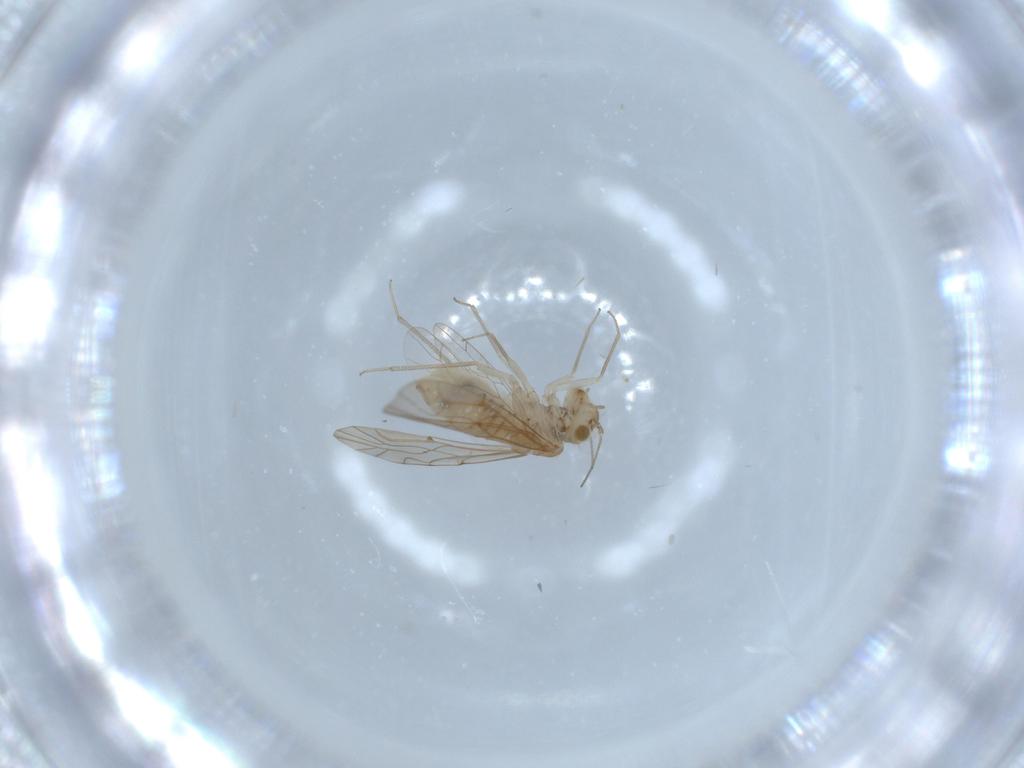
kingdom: Animalia
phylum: Arthropoda
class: Insecta
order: Psocodea
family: Lachesillidae
